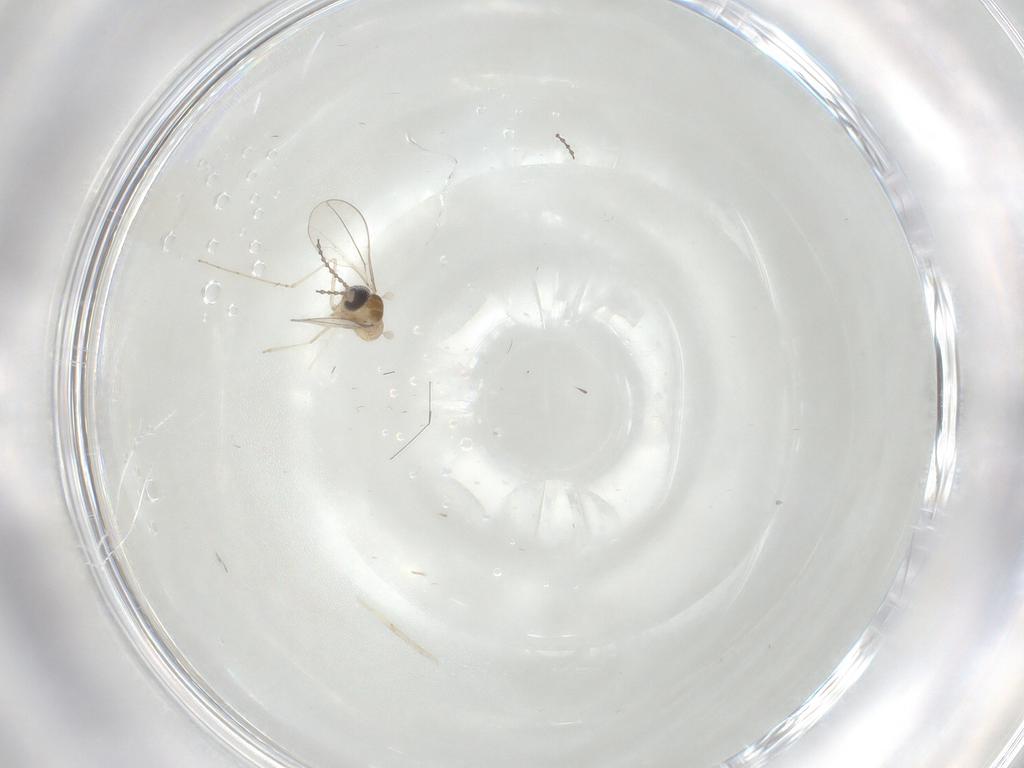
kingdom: Animalia
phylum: Arthropoda
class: Insecta
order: Diptera
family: Cecidomyiidae
